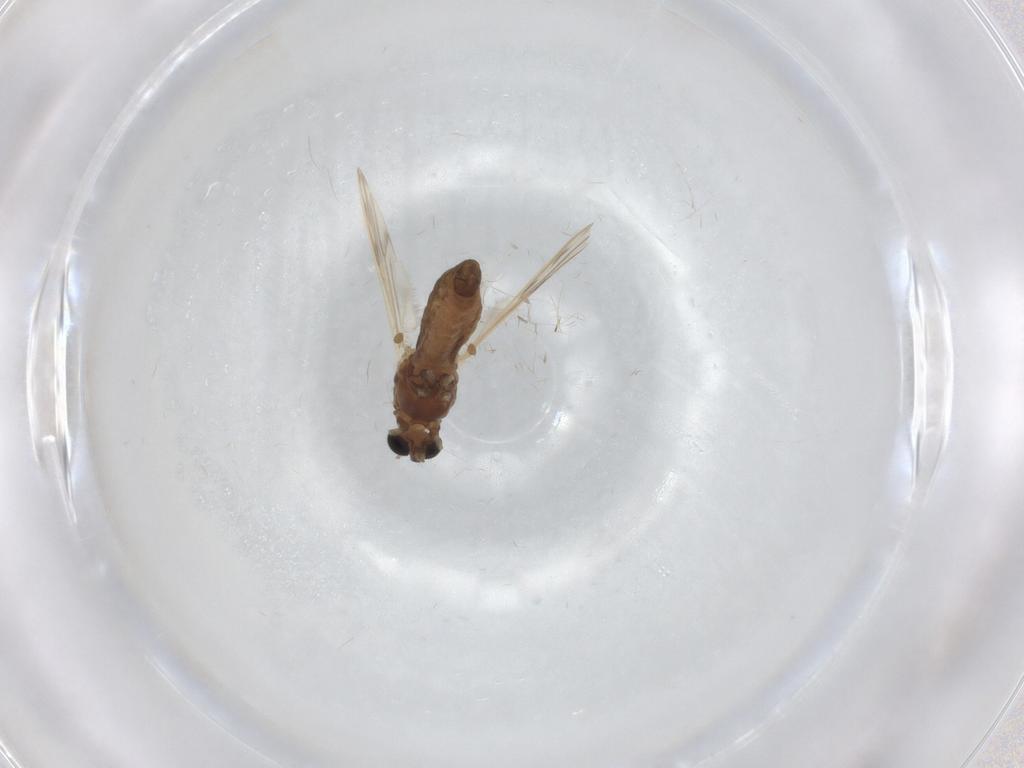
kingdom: Animalia
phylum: Arthropoda
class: Insecta
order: Diptera
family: Chironomidae
